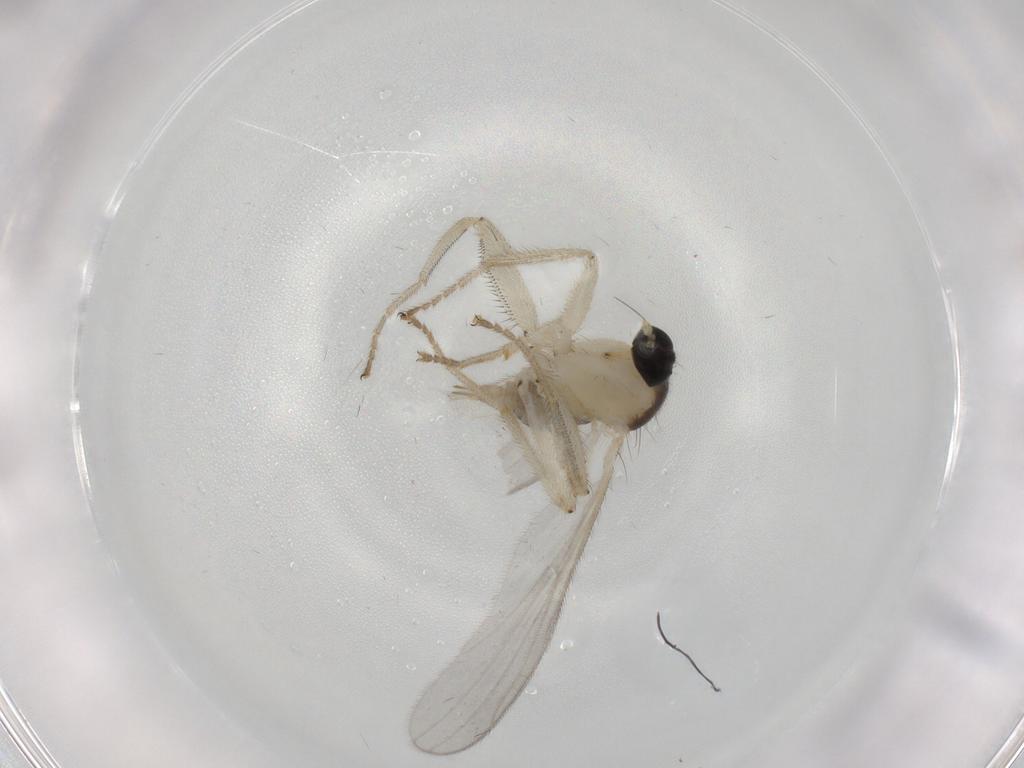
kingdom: Animalia
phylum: Arthropoda
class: Insecta
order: Diptera
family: Hybotidae
